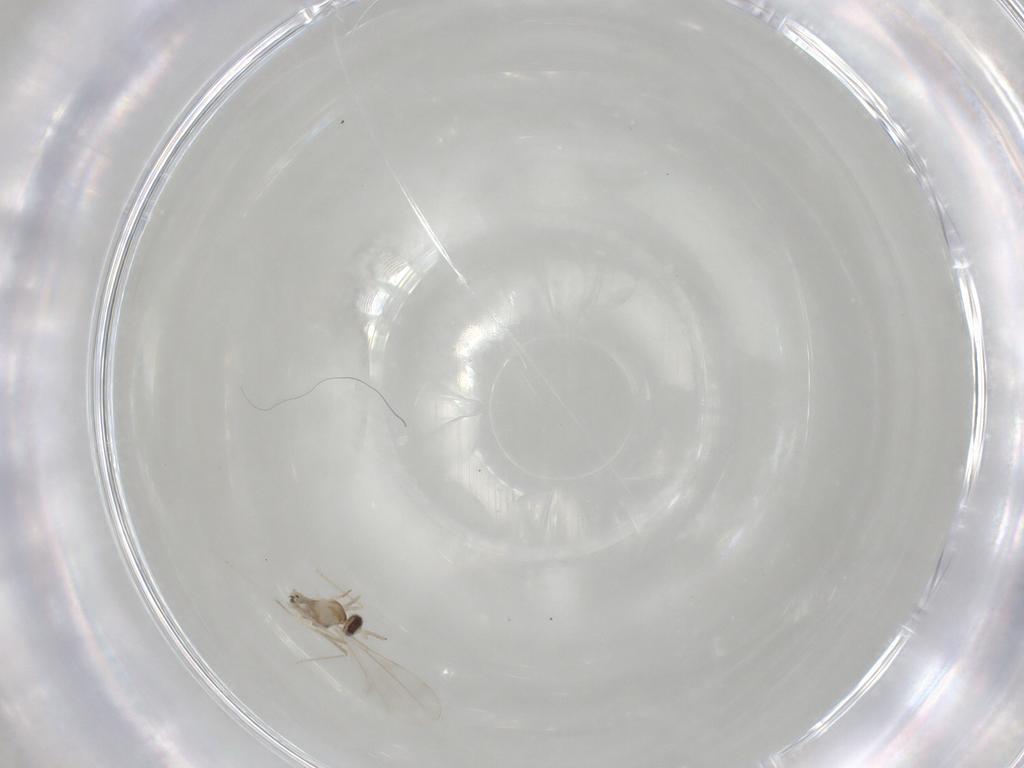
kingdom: Animalia
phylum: Arthropoda
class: Insecta
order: Diptera
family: Cecidomyiidae
